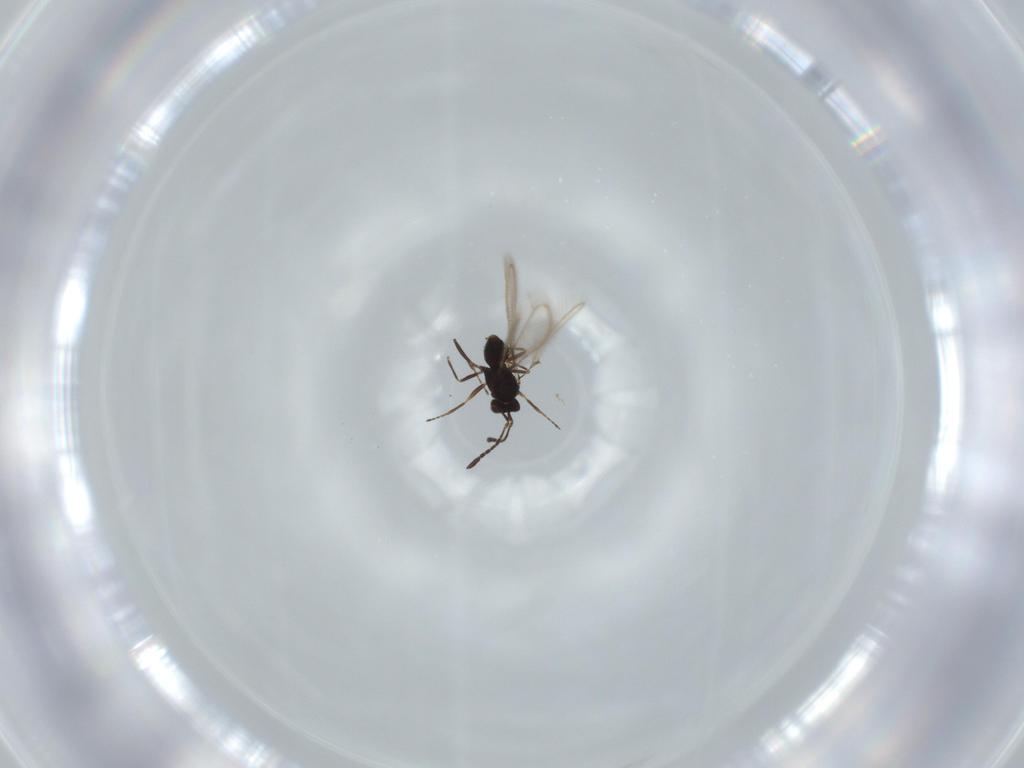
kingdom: Animalia
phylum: Arthropoda
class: Insecta
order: Hymenoptera
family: Mymaridae
